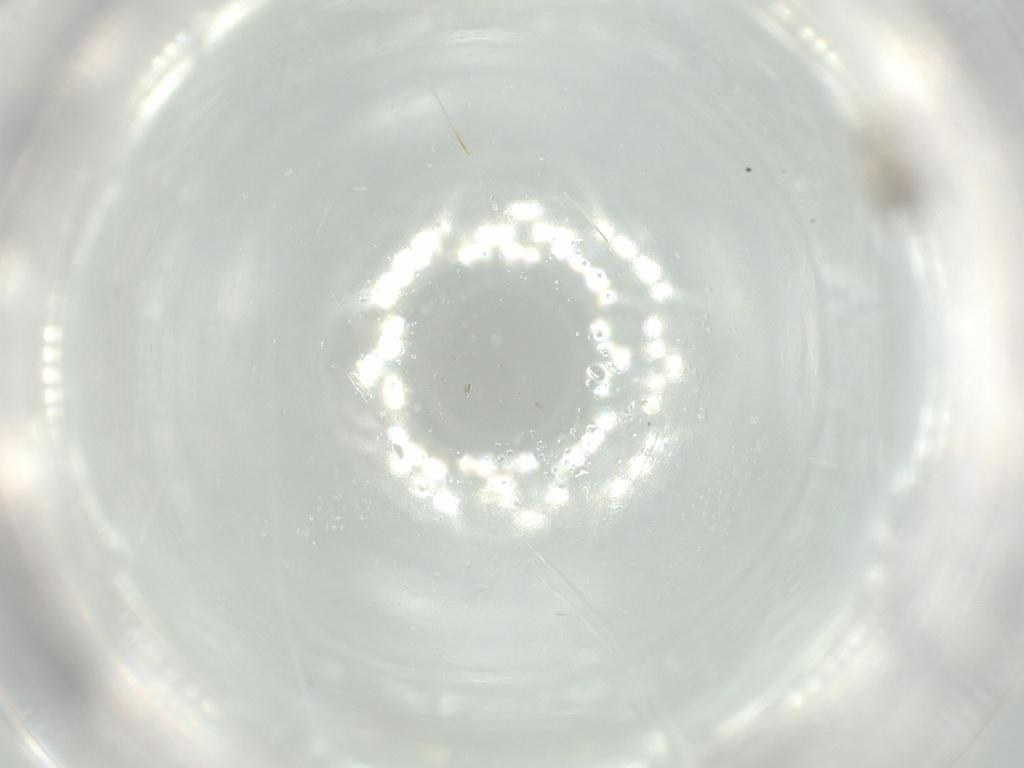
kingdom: Animalia
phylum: Arthropoda
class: Insecta
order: Diptera
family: Cecidomyiidae
